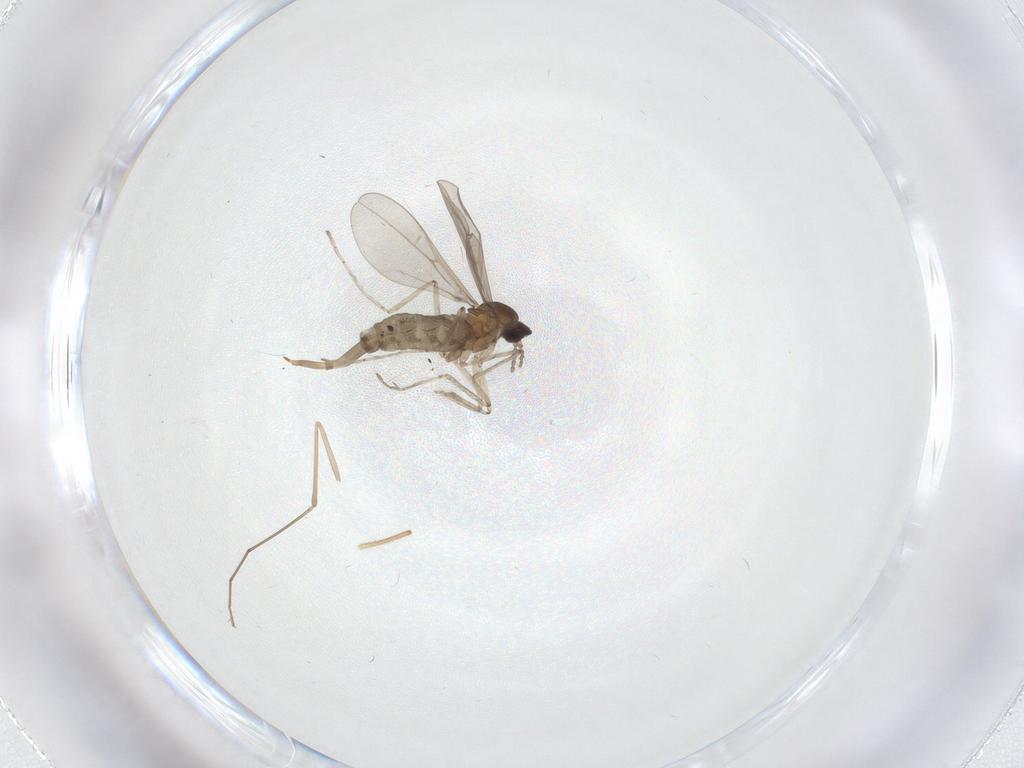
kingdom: Animalia
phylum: Arthropoda
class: Insecta
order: Diptera
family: Cecidomyiidae
